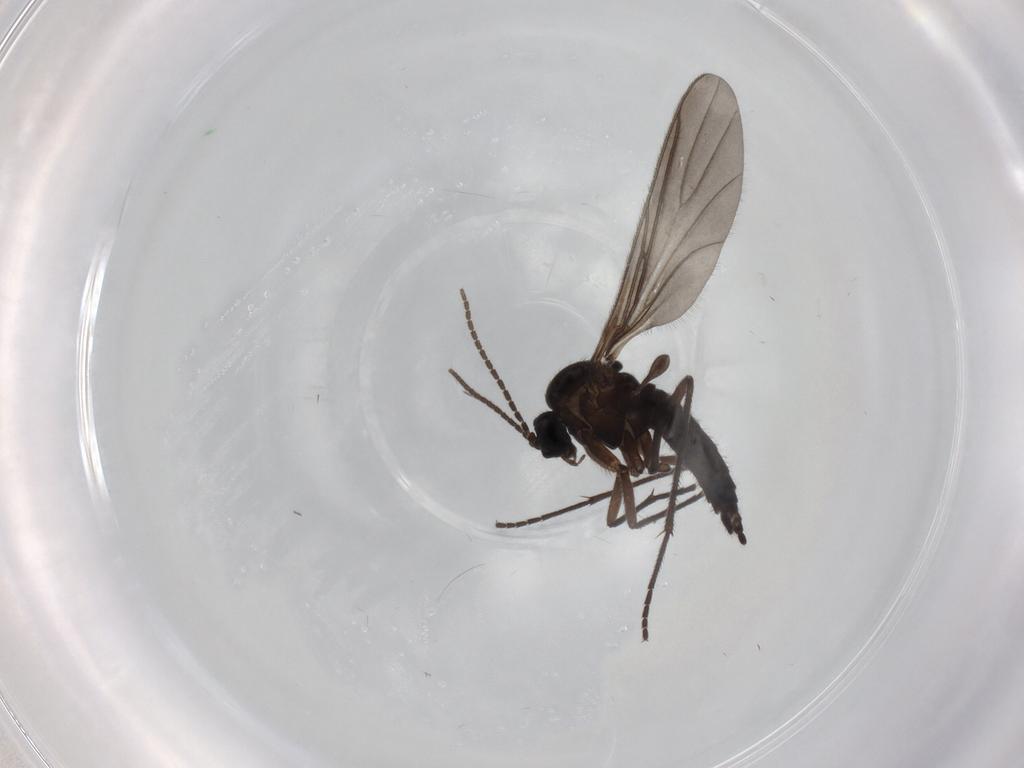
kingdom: Animalia
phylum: Arthropoda
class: Insecta
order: Diptera
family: Sciaridae
